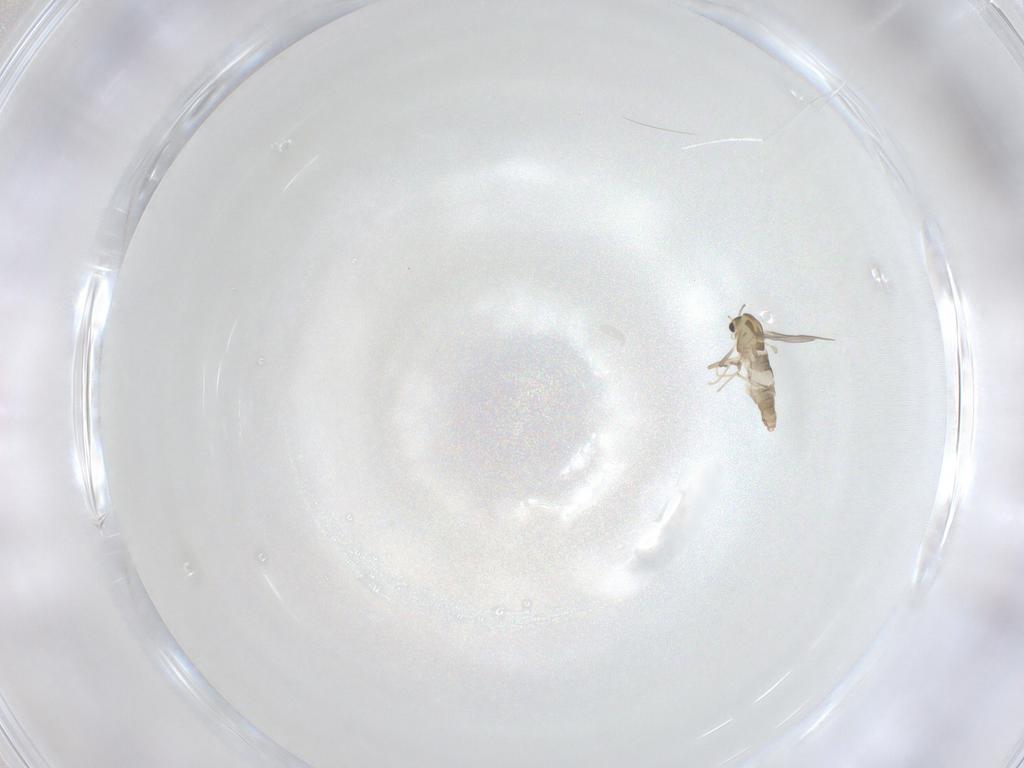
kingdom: Animalia
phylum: Arthropoda
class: Insecta
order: Diptera
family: Chironomidae
